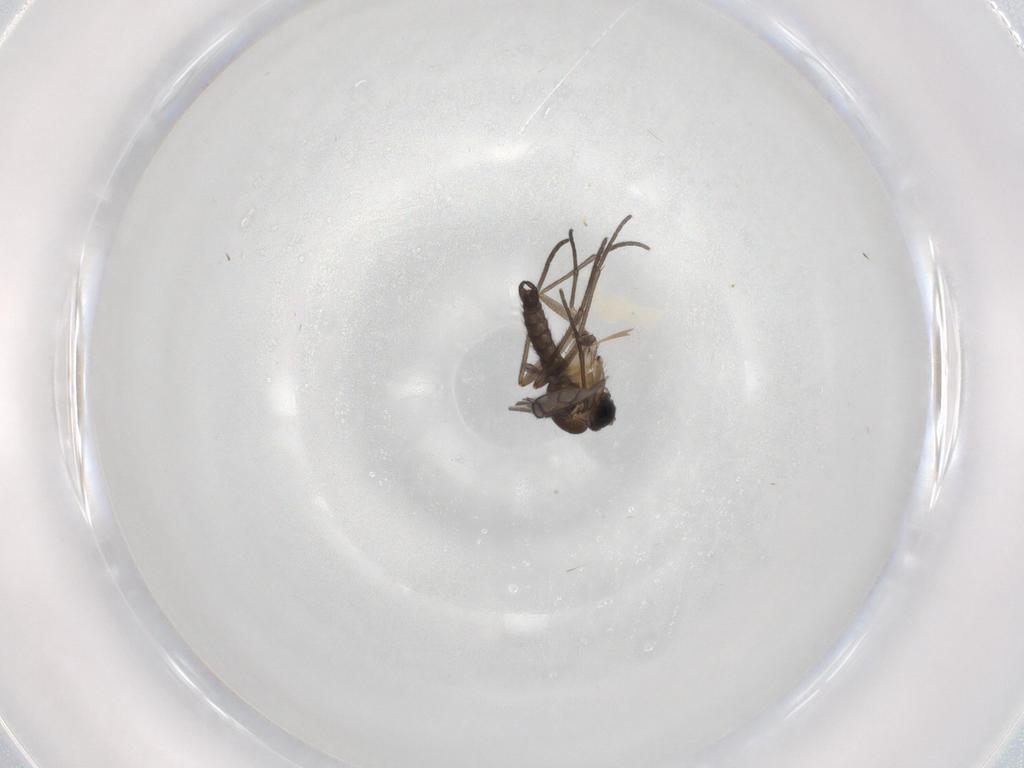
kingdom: Animalia
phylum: Arthropoda
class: Insecta
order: Diptera
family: Sciaridae
